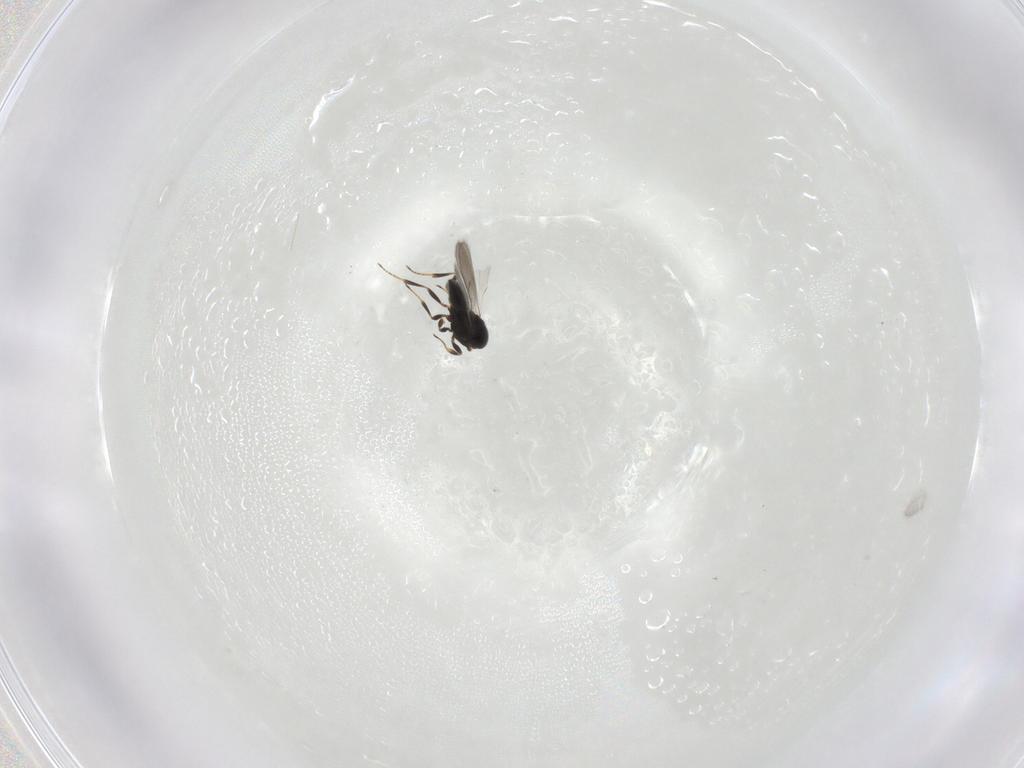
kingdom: Animalia
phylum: Arthropoda
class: Insecta
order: Hymenoptera
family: Scelionidae
